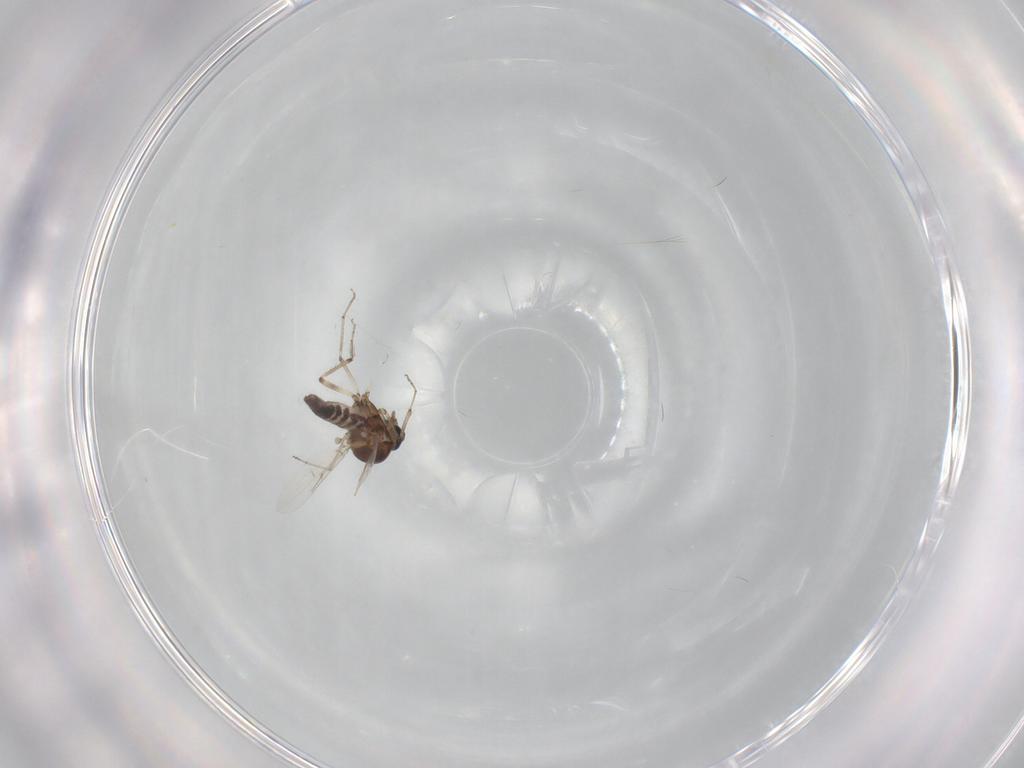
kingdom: Animalia
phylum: Arthropoda
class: Insecta
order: Diptera
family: Ceratopogonidae
